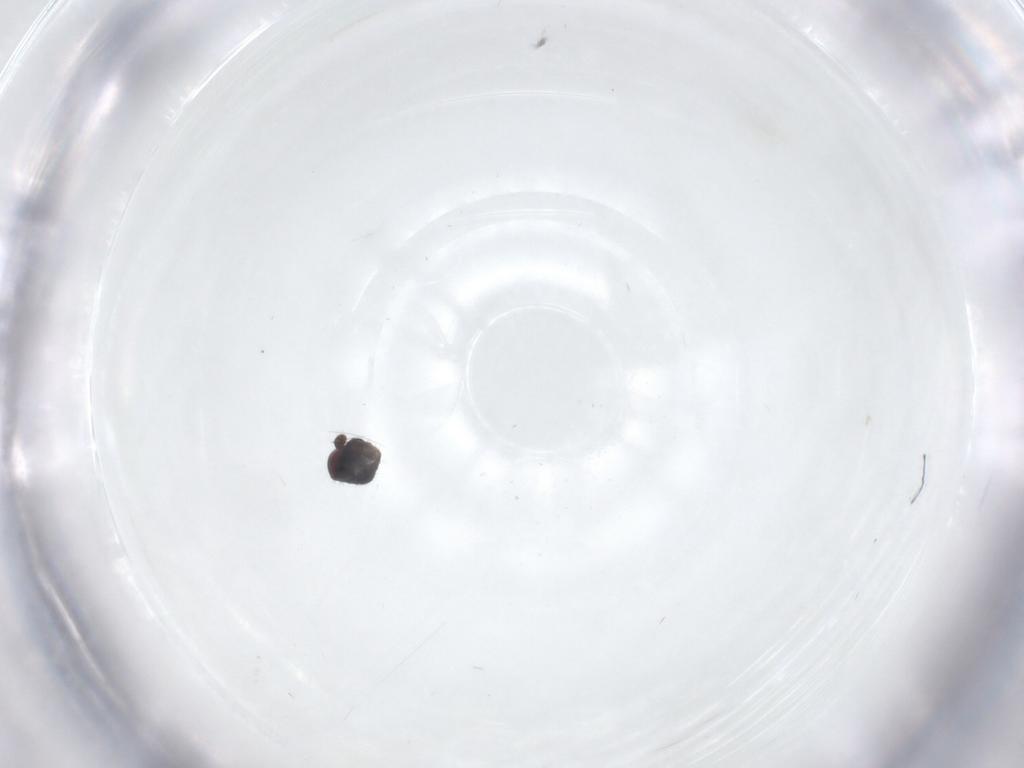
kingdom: Animalia
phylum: Arthropoda
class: Insecta
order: Diptera
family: Sphaeroceridae
